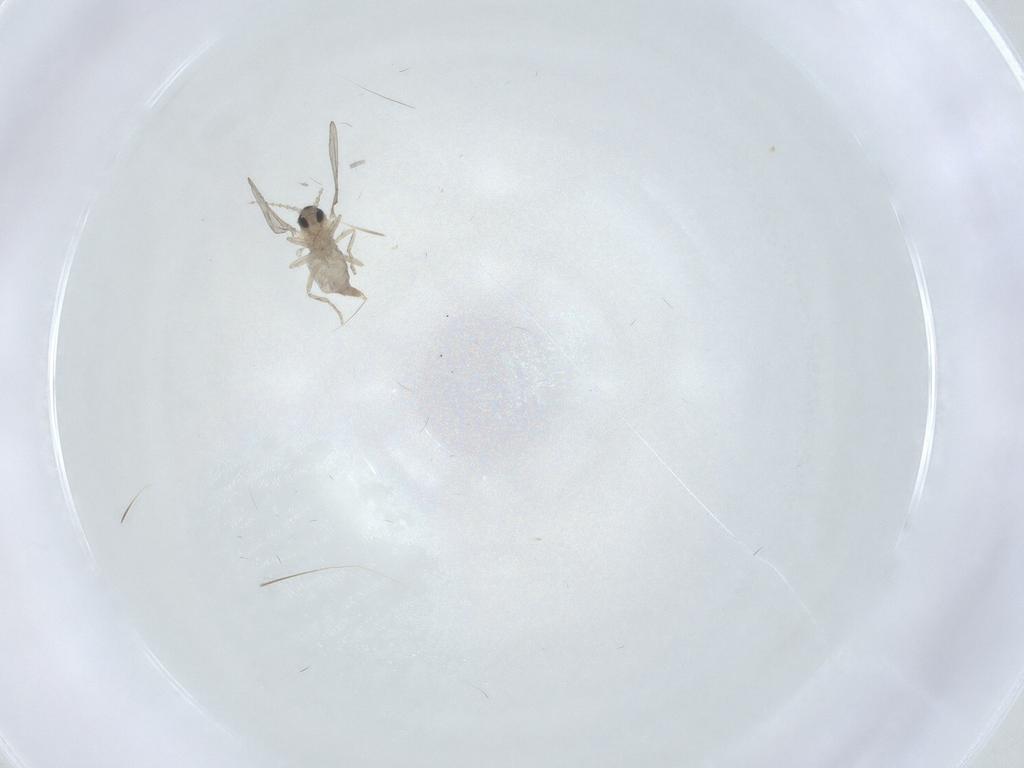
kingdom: Animalia
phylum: Arthropoda
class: Insecta
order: Diptera
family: Cecidomyiidae
